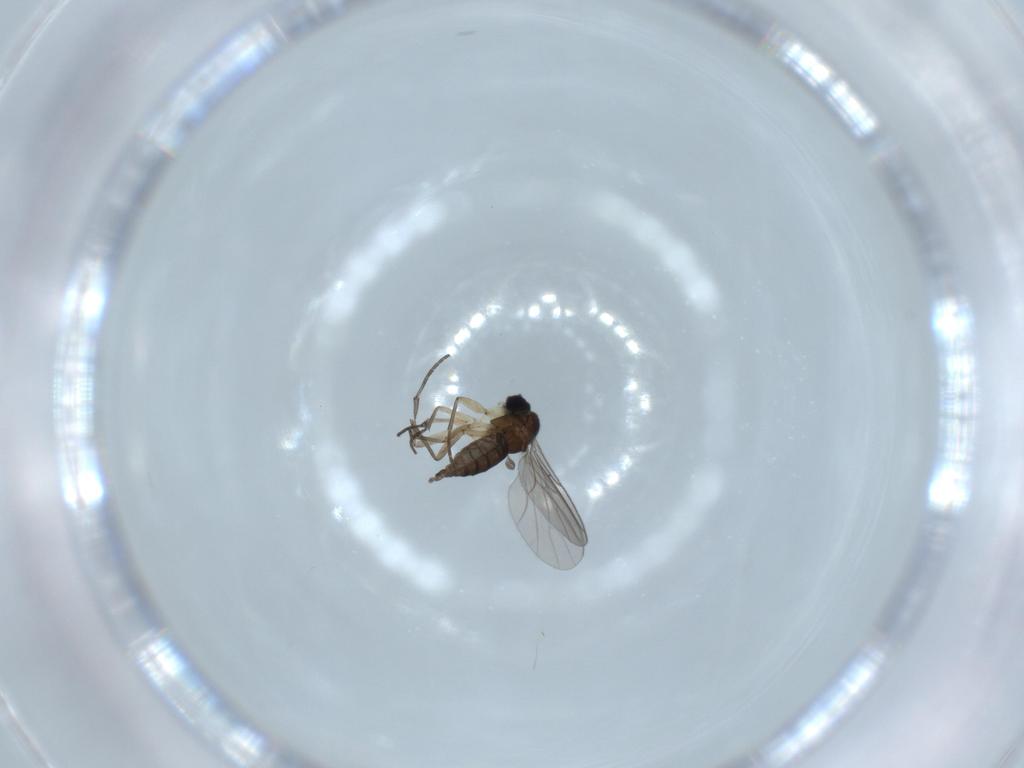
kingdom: Animalia
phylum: Arthropoda
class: Insecta
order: Diptera
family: Sciaridae
